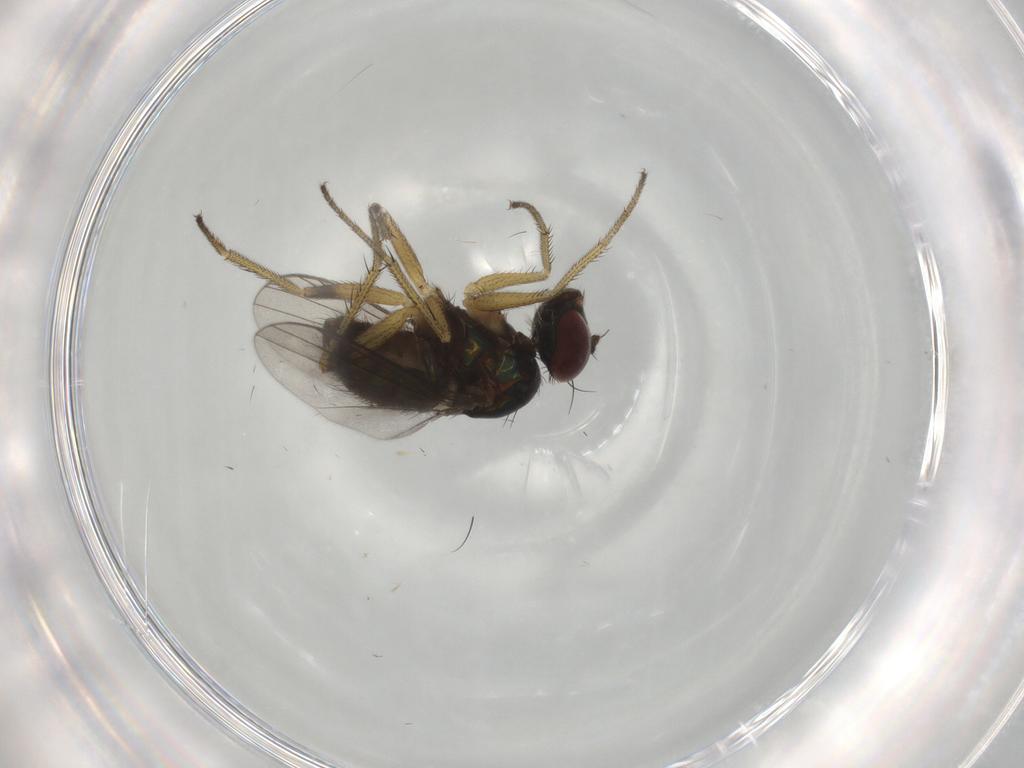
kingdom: Animalia
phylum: Arthropoda
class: Insecta
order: Diptera
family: Dolichopodidae
